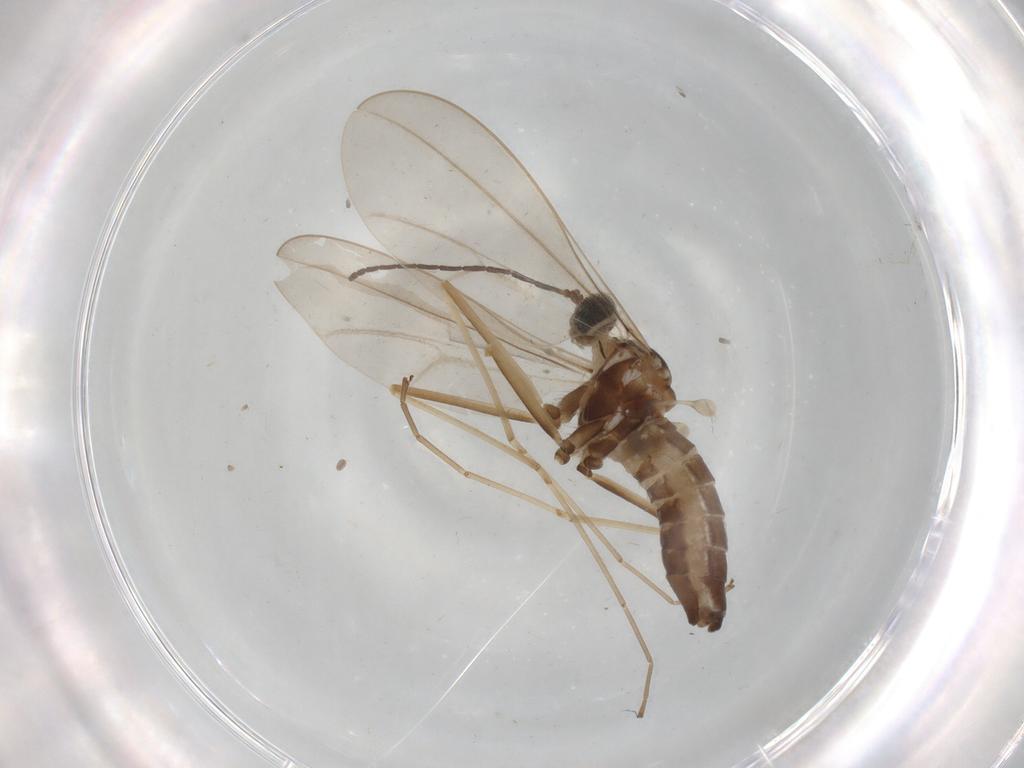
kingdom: Animalia
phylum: Arthropoda
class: Insecta
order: Diptera
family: Cecidomyiidae
